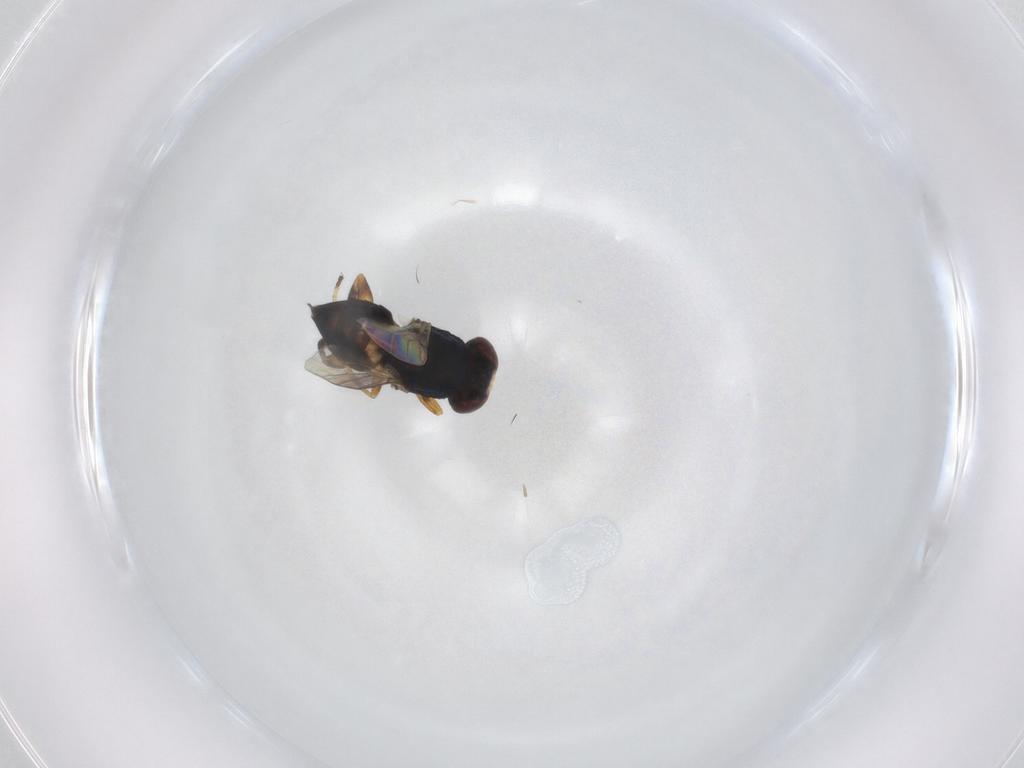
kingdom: Animalia
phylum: Arthropoda
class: Insecta
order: Diptera
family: Chloropidae
